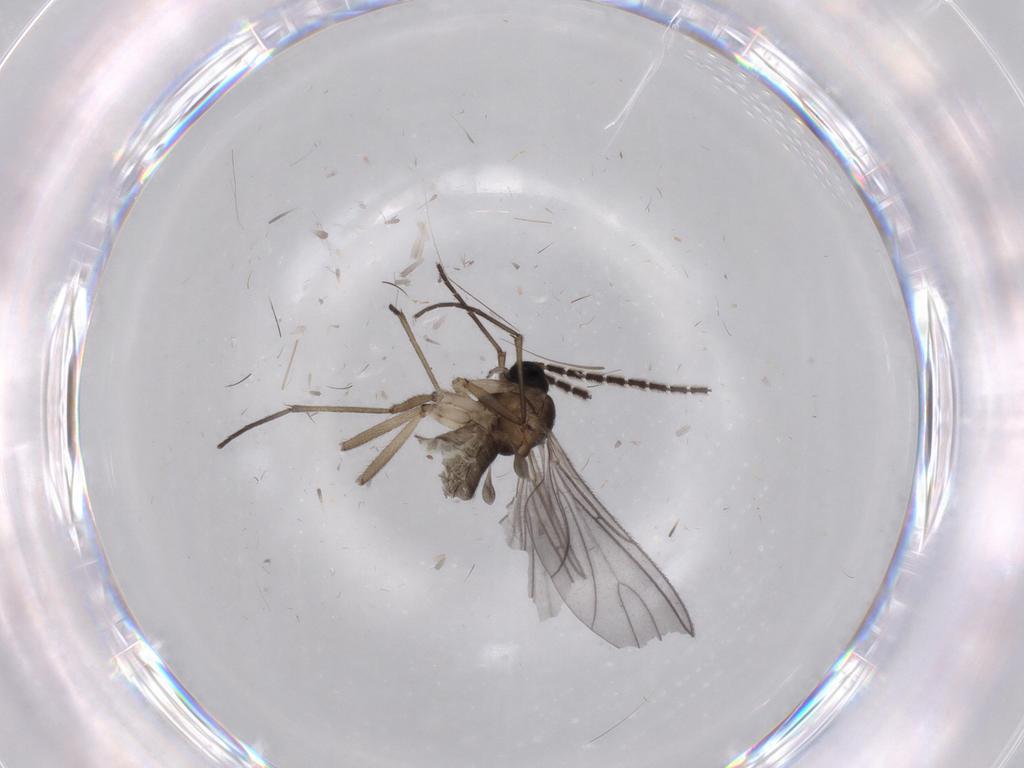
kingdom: Animalia
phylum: Arthropoda
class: Insecta
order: Diptera
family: Sciaridae
